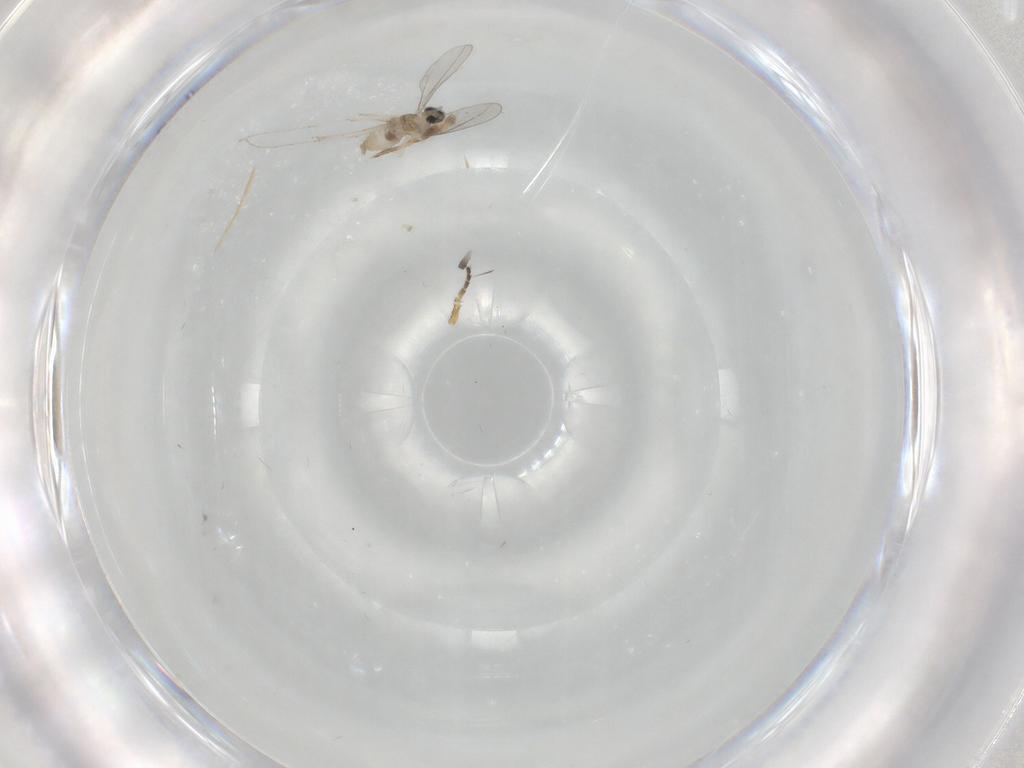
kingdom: Animalia
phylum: Arthropoda
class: Insecta
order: Diptera
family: Milichiidae
